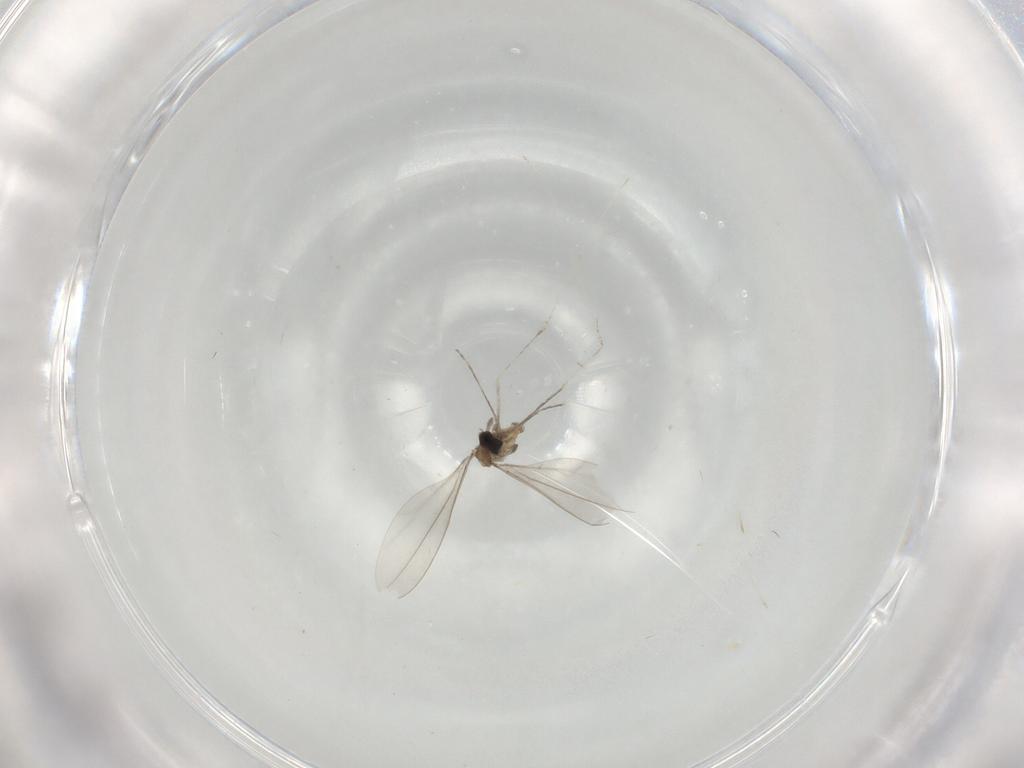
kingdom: Animalia
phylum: Arthropoda
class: Insecta
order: Diptera
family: Cecidomyiidae
